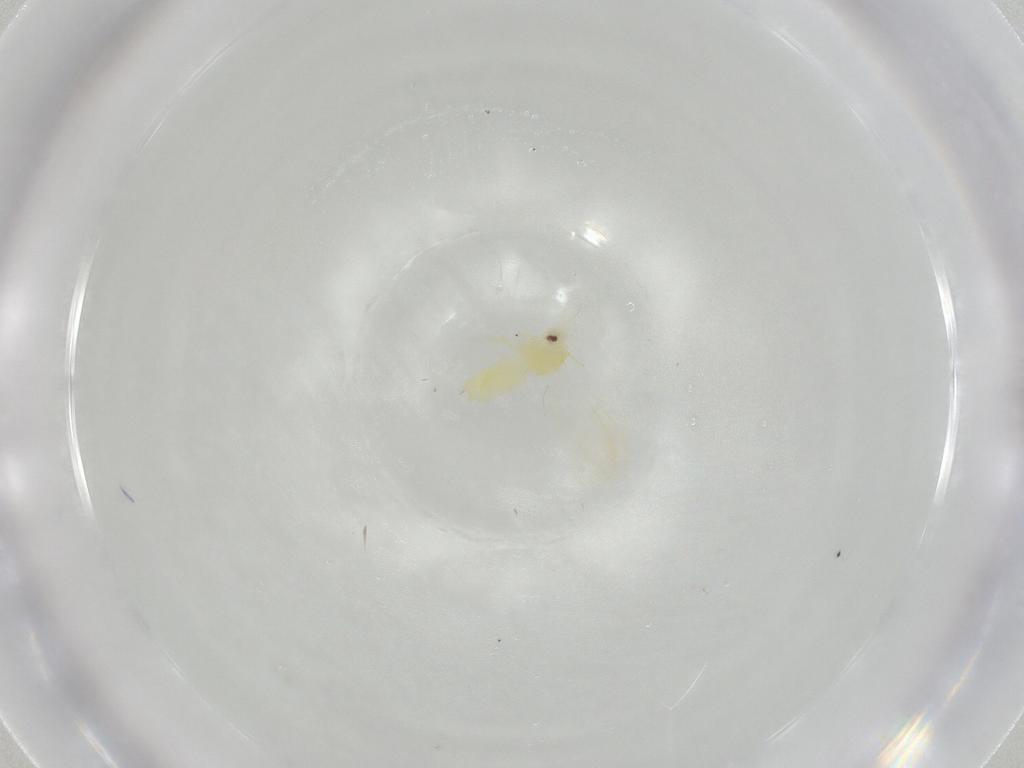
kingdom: Animalia
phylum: Arthropoda
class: Insecta
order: Hemiptera
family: Aleyrodidae
